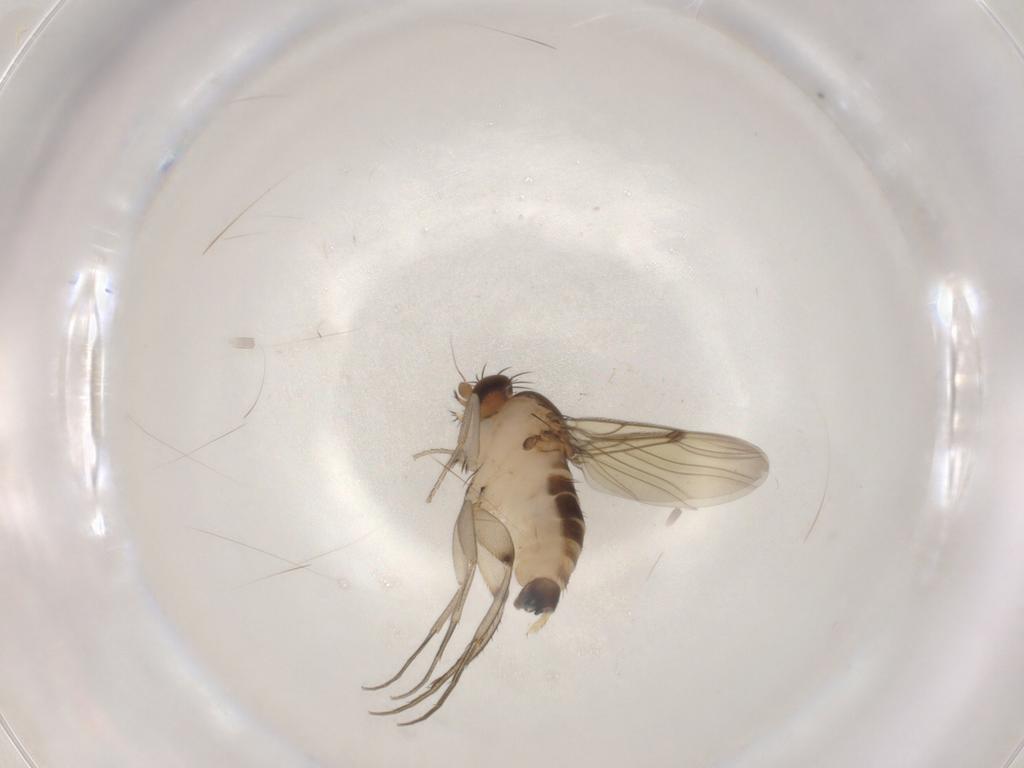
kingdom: Animalia
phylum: Arthropoda
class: Insecta
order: Diptera
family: Phoridae
